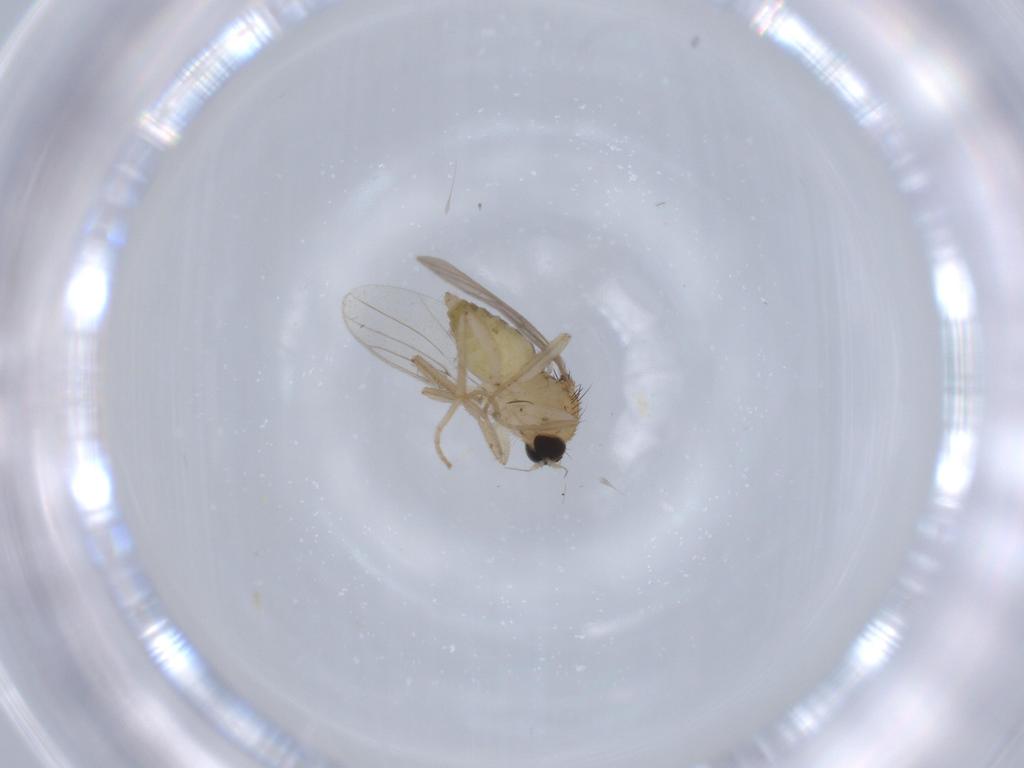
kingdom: Animalia
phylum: Arthropoda
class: Insecta
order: Diptera
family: Hybotidae
